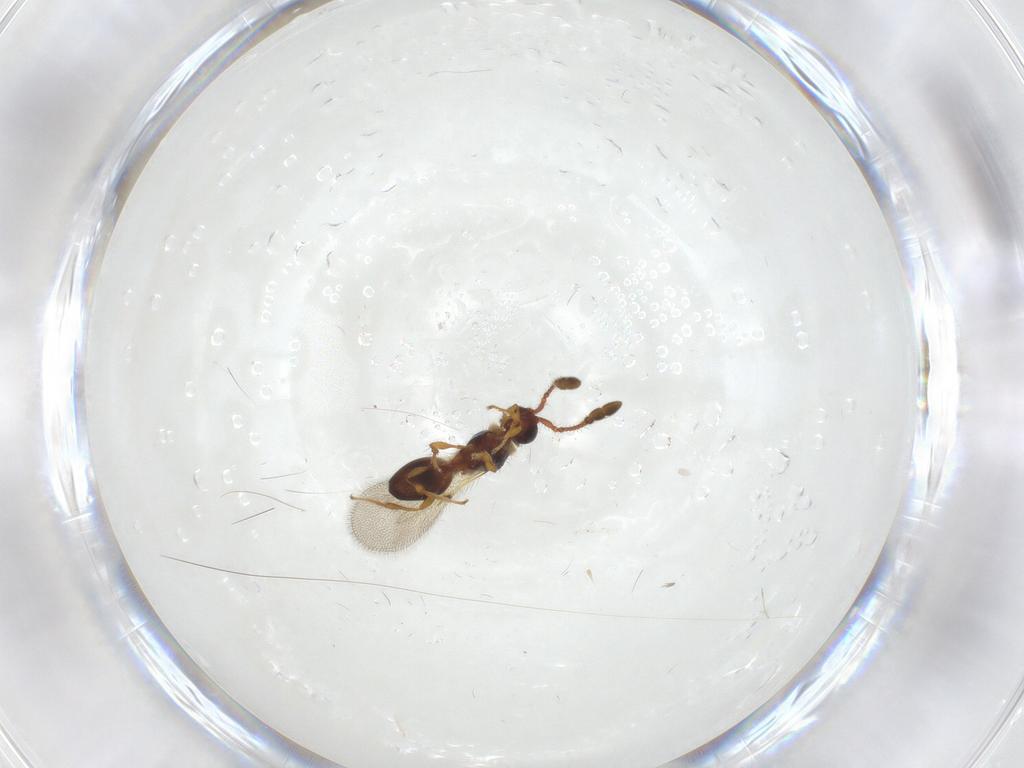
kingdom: Animalia
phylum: Arthropoda
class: Insecta
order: Hymenoptera
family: Diapriidae
